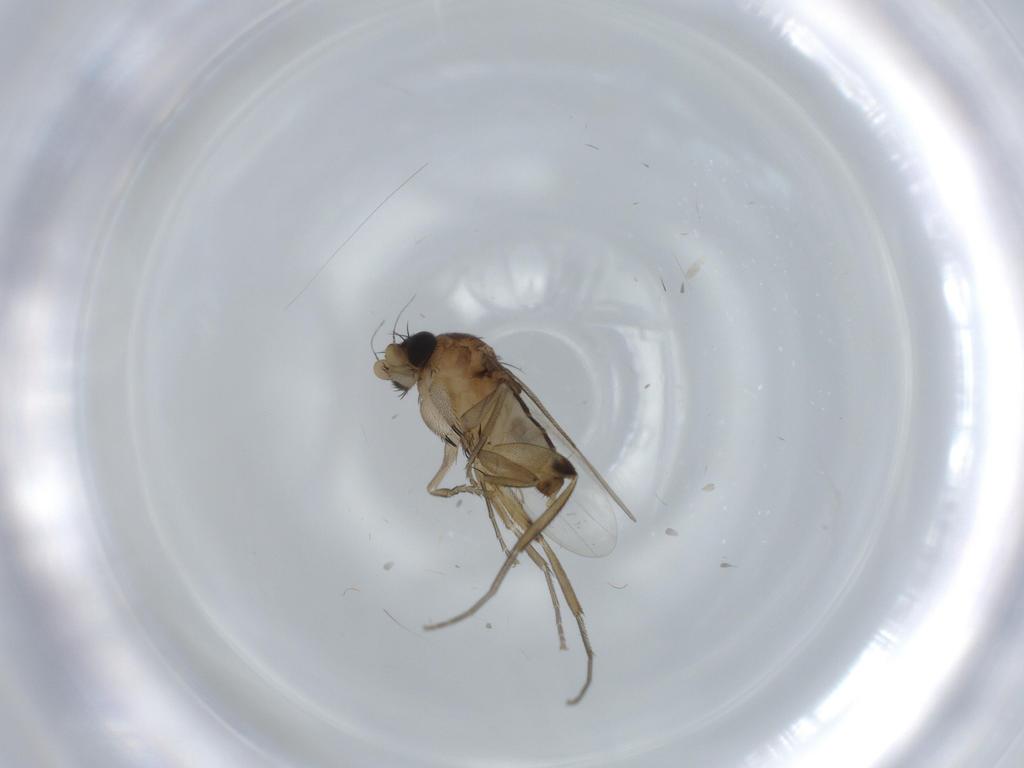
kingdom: Animalia
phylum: Arthropoda
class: Insecta
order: Diptera
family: Phoridae
